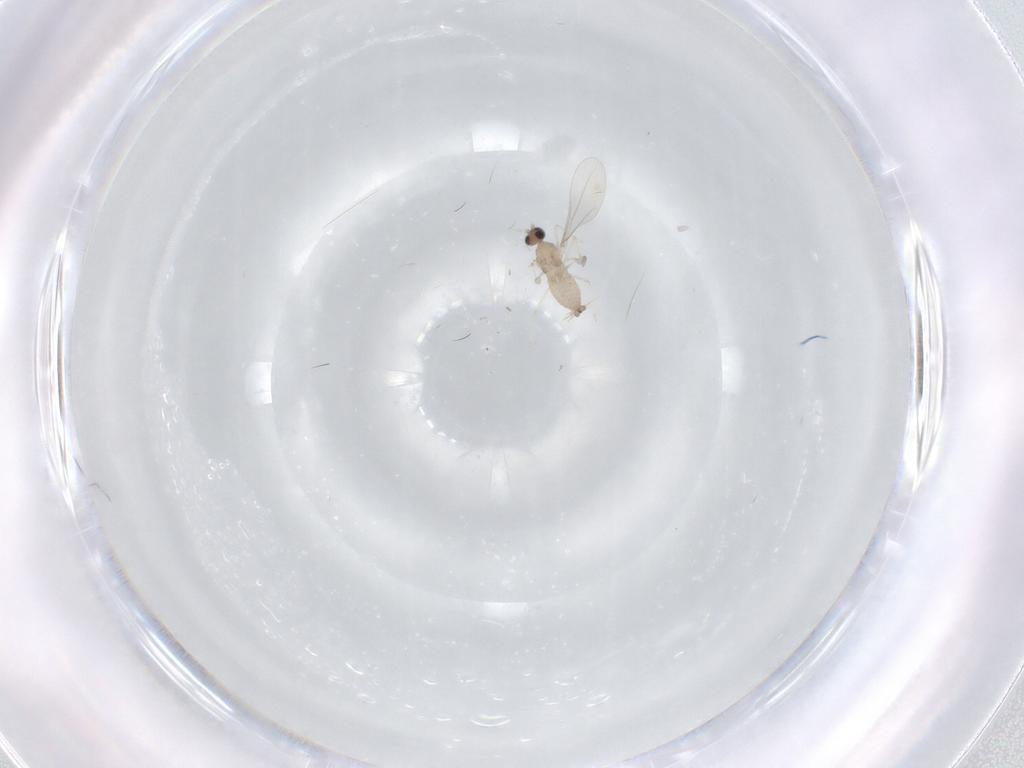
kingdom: Animalia
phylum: Arthropoda
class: Insecta
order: Diptera
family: Cecidomyiidae
